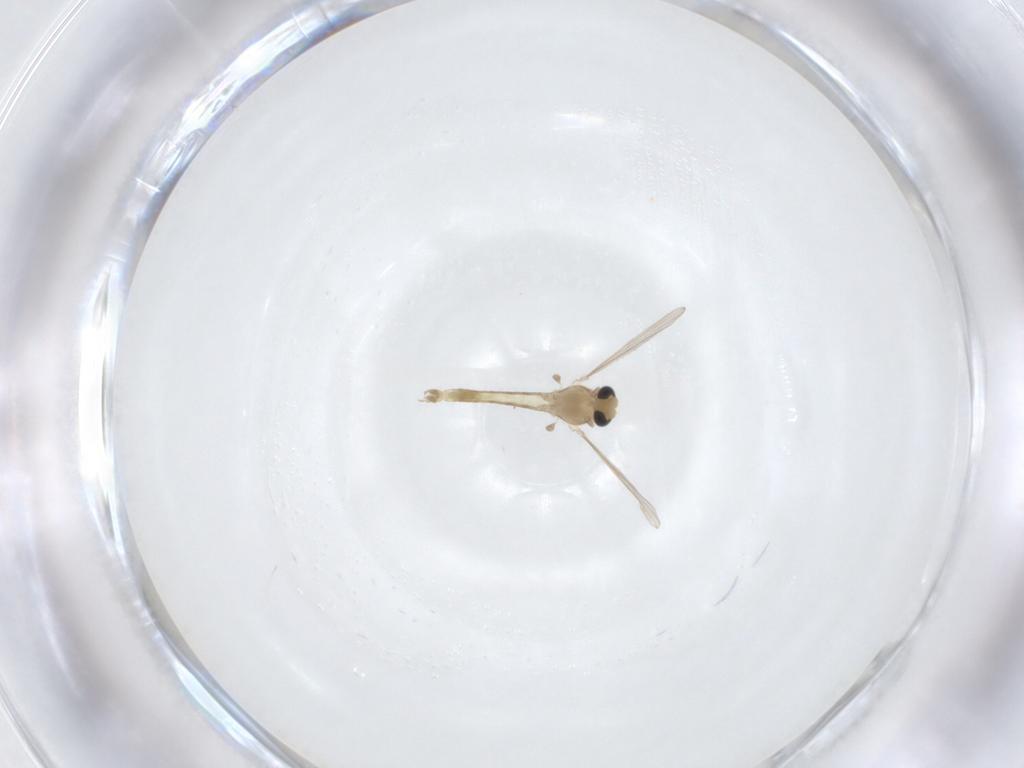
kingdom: Animalia
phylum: Arthropoda
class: Insecta
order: Diptera
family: Chironomidae
